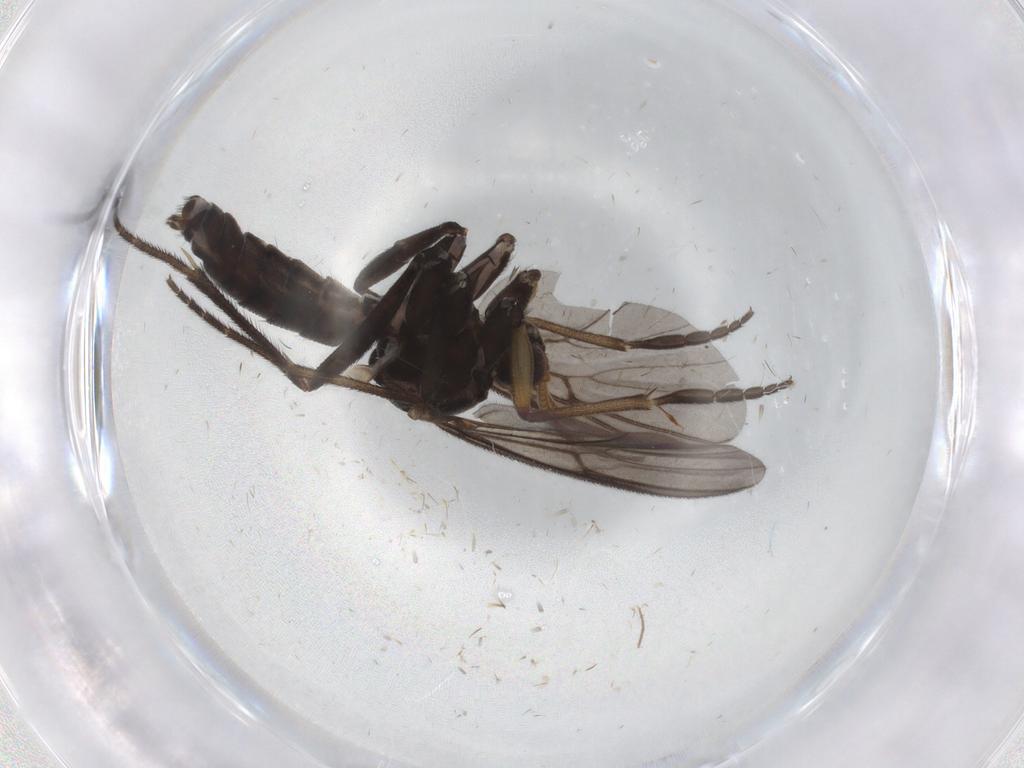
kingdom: Animalia
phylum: Arthropoda
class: Insecta
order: Diptera
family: Mycetophilidae
